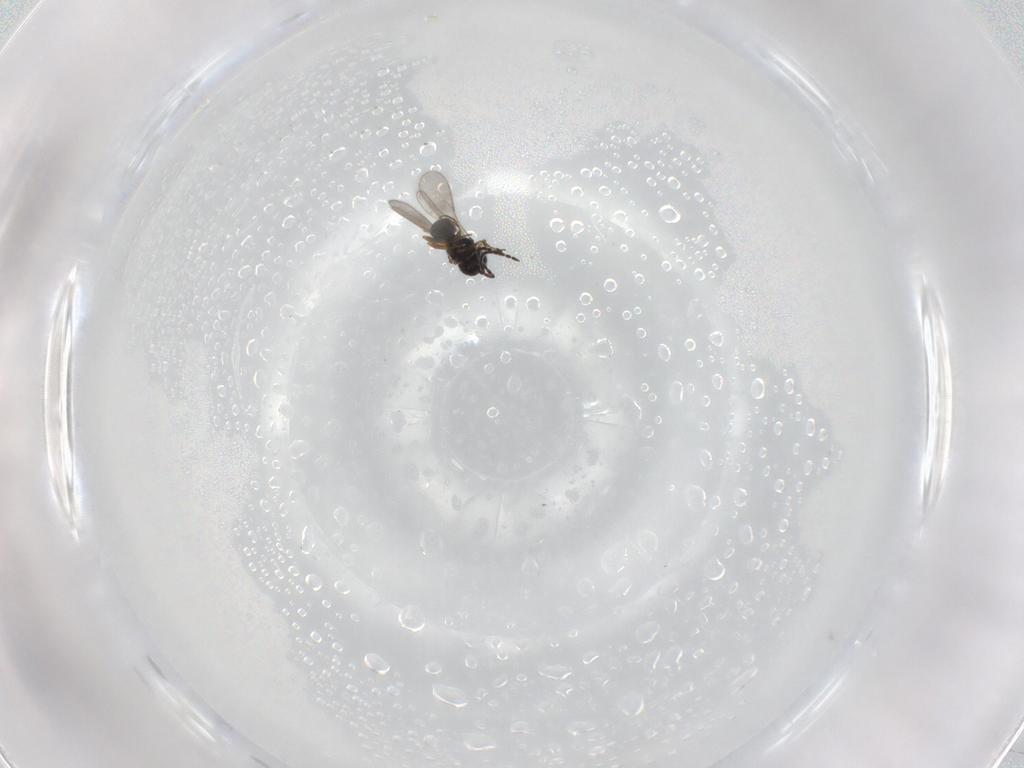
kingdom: Animalia
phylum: Arthropoda
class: Insecta
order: Hymenoptera
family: Scelionidae
